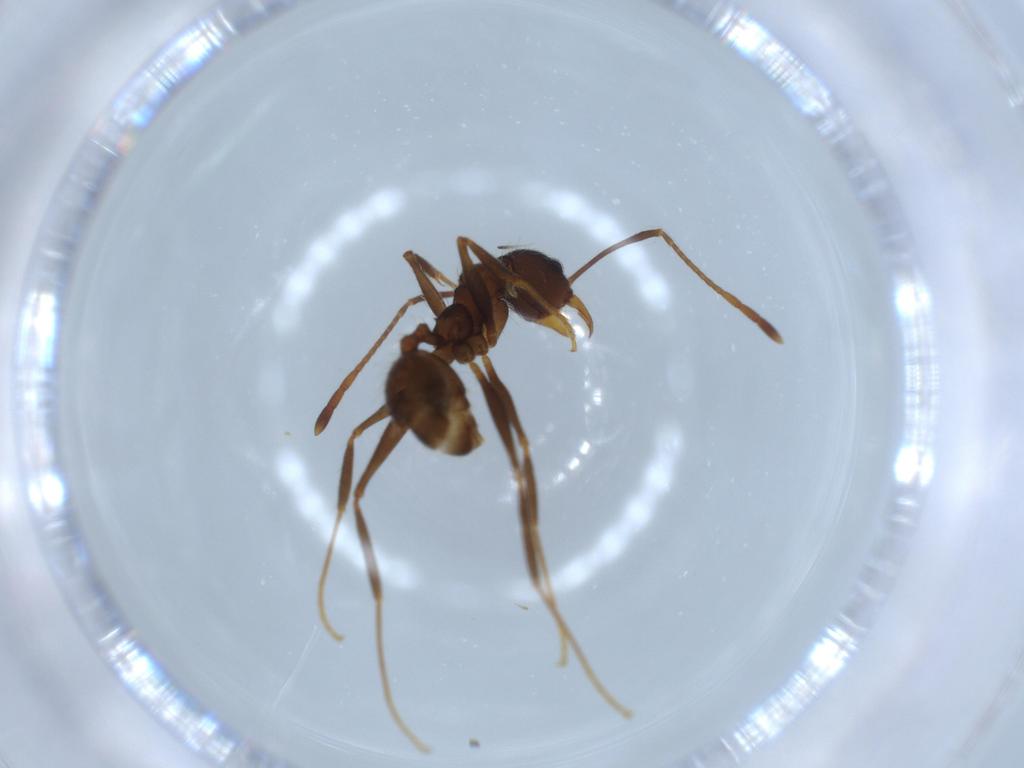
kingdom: Animalia
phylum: Arthropoda
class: Insecta
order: Hymenoptera
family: Formicidae
